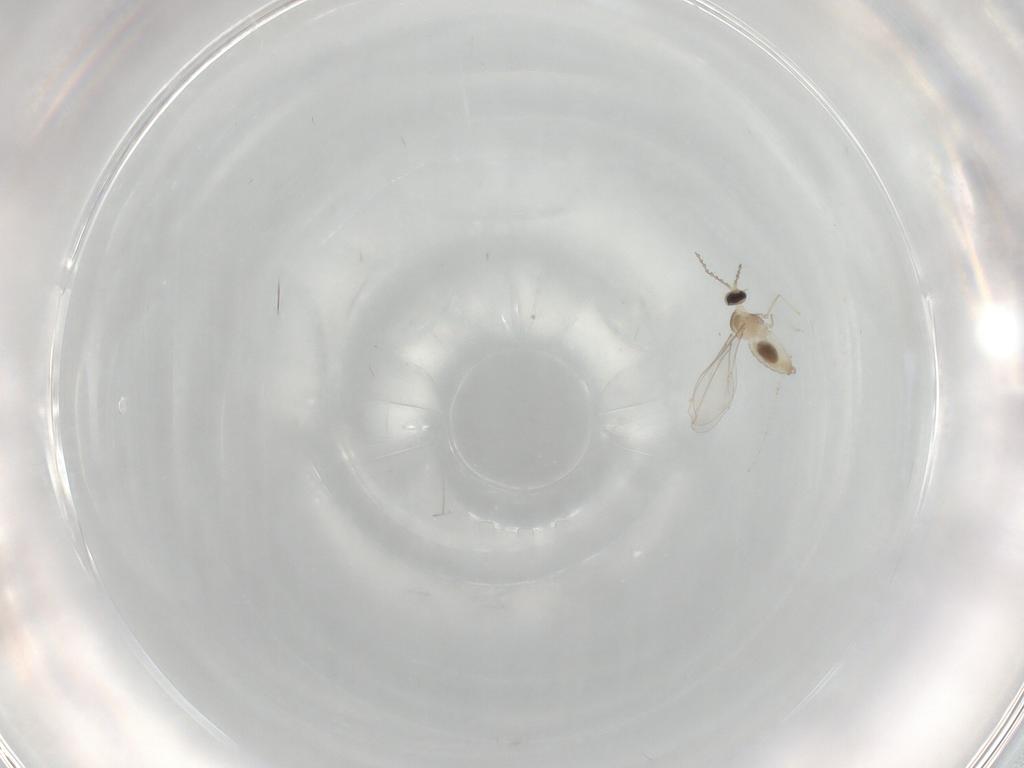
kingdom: Animalia
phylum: Arthropoda
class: Insecta
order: Diptera
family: Cecidomyiidae
